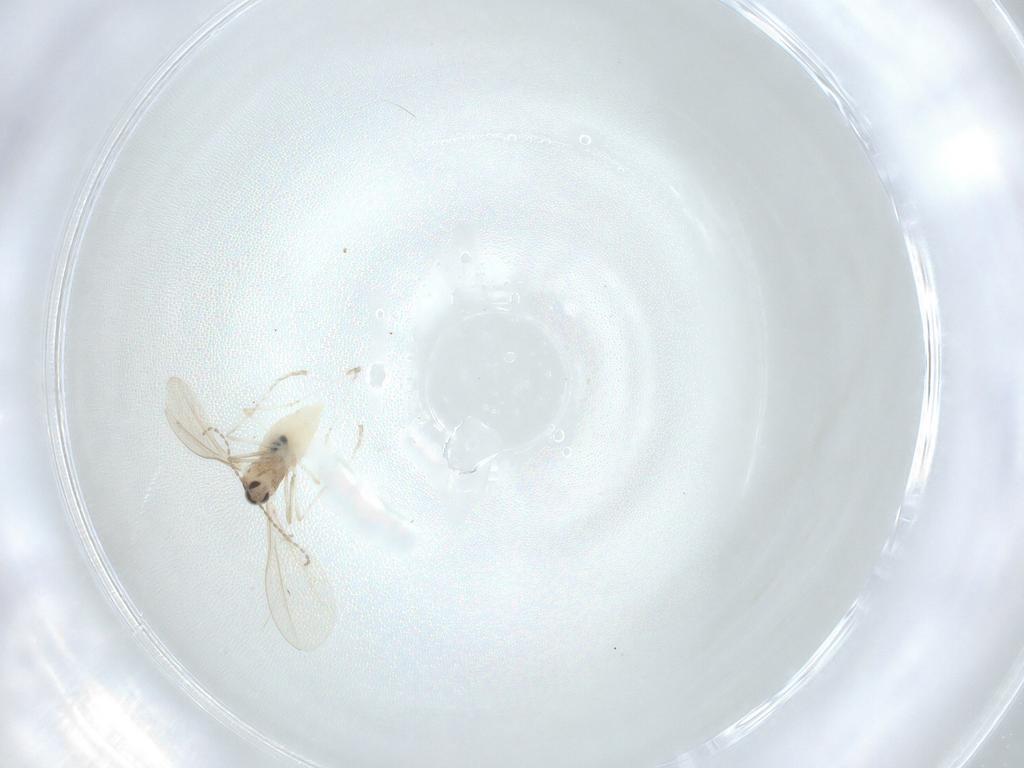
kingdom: Animalia
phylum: Arthropoda
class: Insecta
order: Diptera
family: Cecidomyiidae
